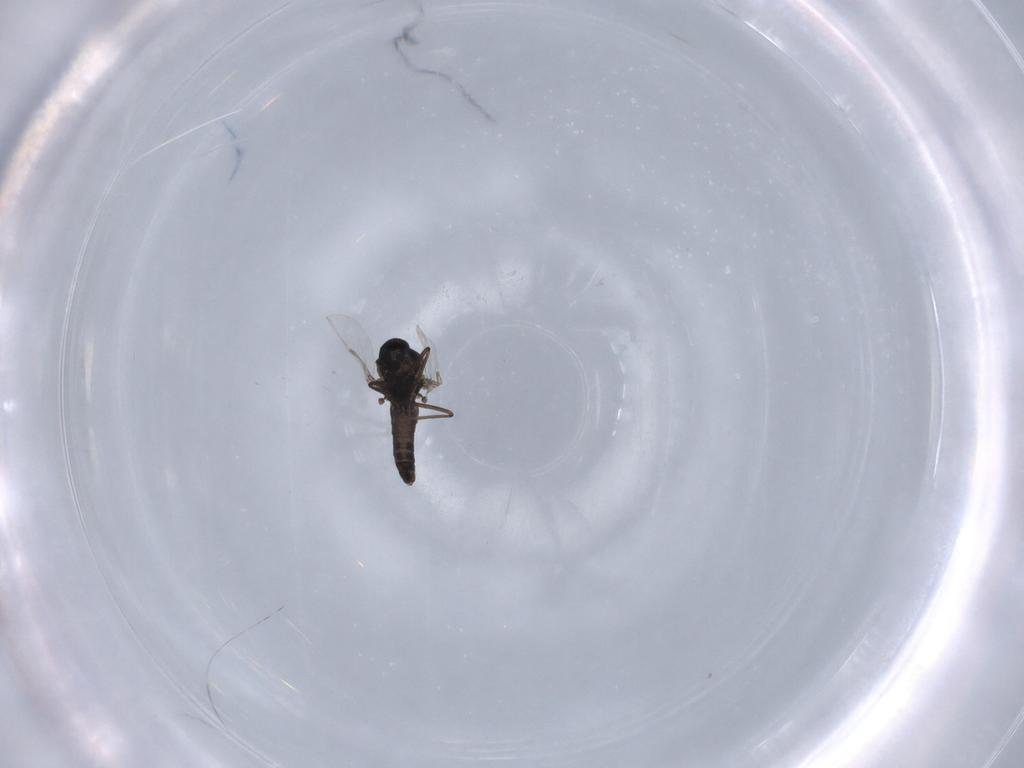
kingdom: Animalia
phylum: Arthropoda
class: Insecta
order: Diptera
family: Ceratopogonidae
